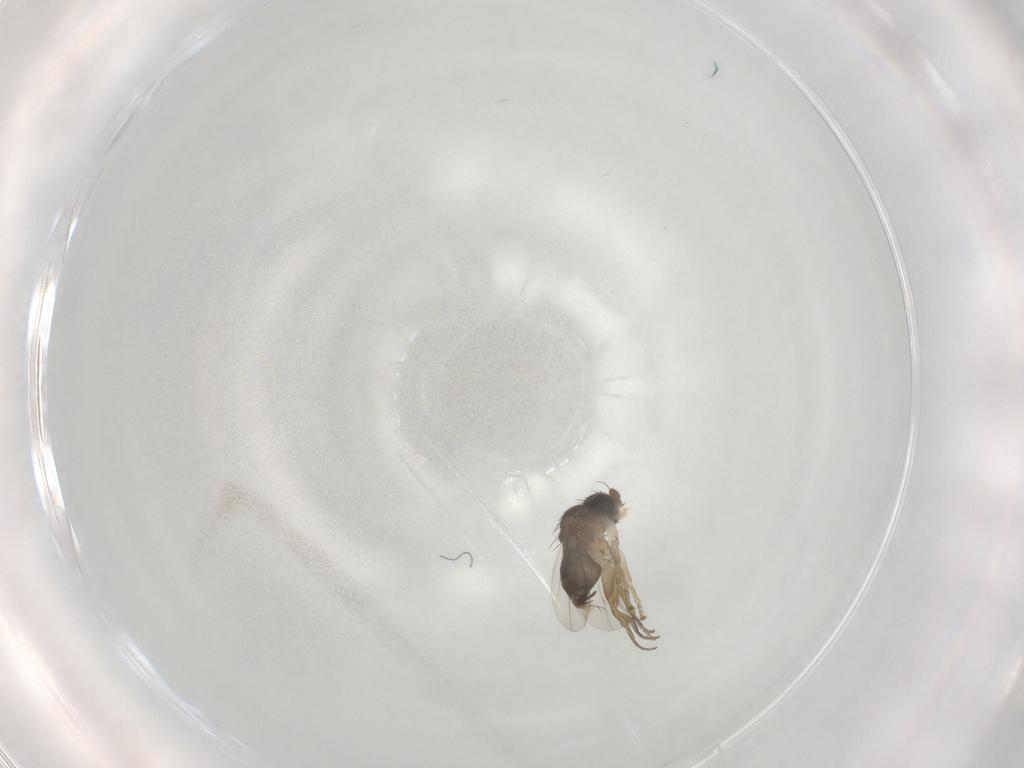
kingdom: Animalia
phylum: Arthropoda
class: Insecta
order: Diptera
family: Phoridae
